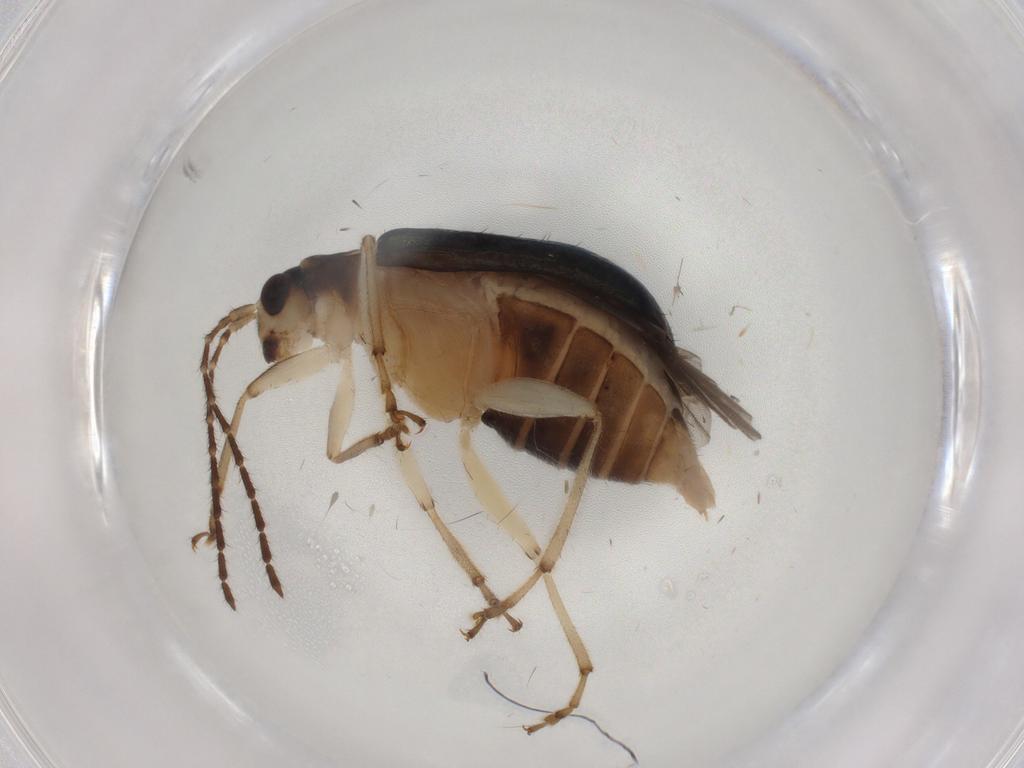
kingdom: Animalia
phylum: Arthropoda
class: Insecta
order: Coleoptera
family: Chrysomelidae
